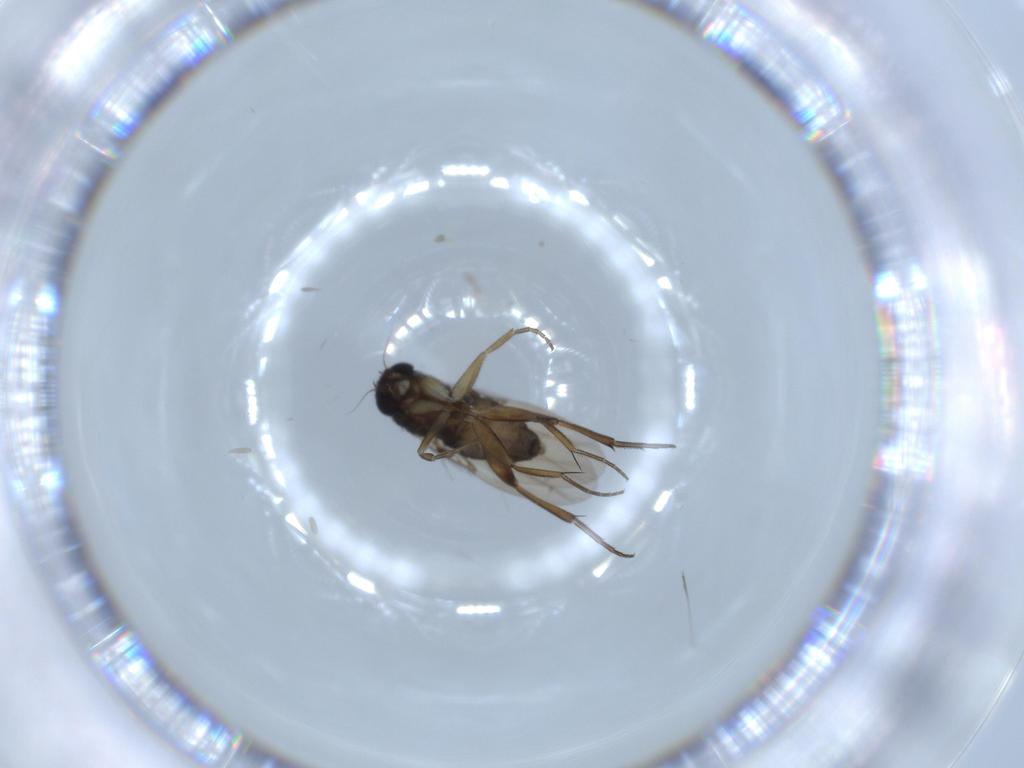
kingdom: Animalia
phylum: Arthropoda
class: Insecta
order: Diptera
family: Phoridae
